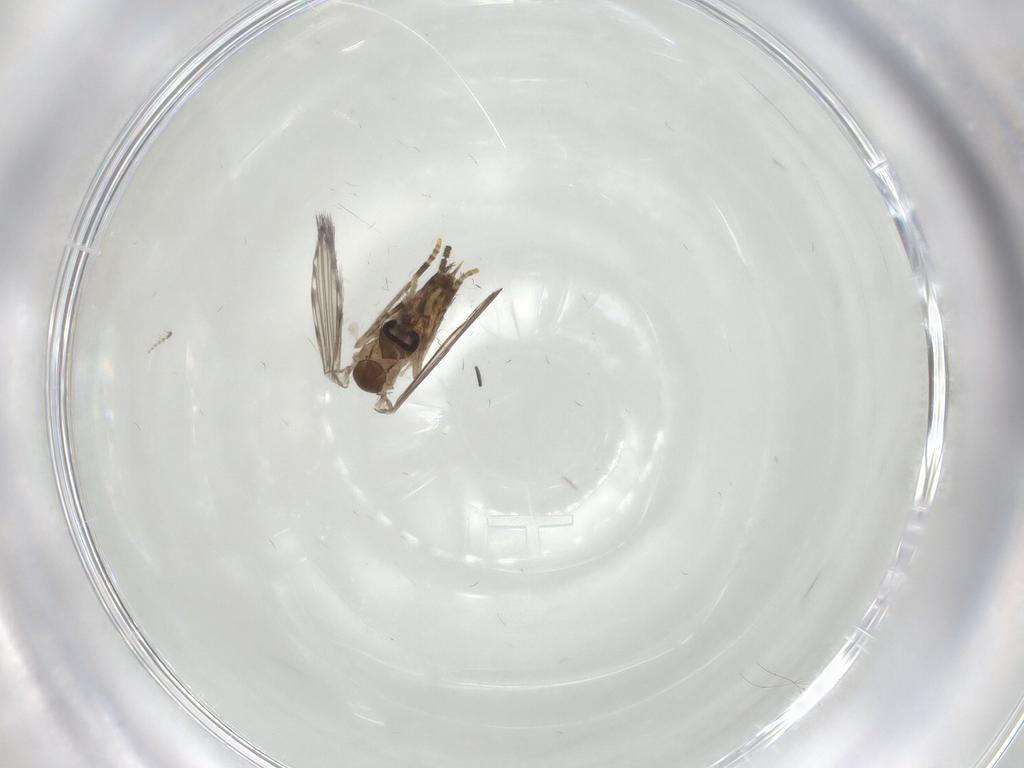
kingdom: Animalia
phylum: Arthropoda
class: Insecta
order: Diptera
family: Psychodidae
